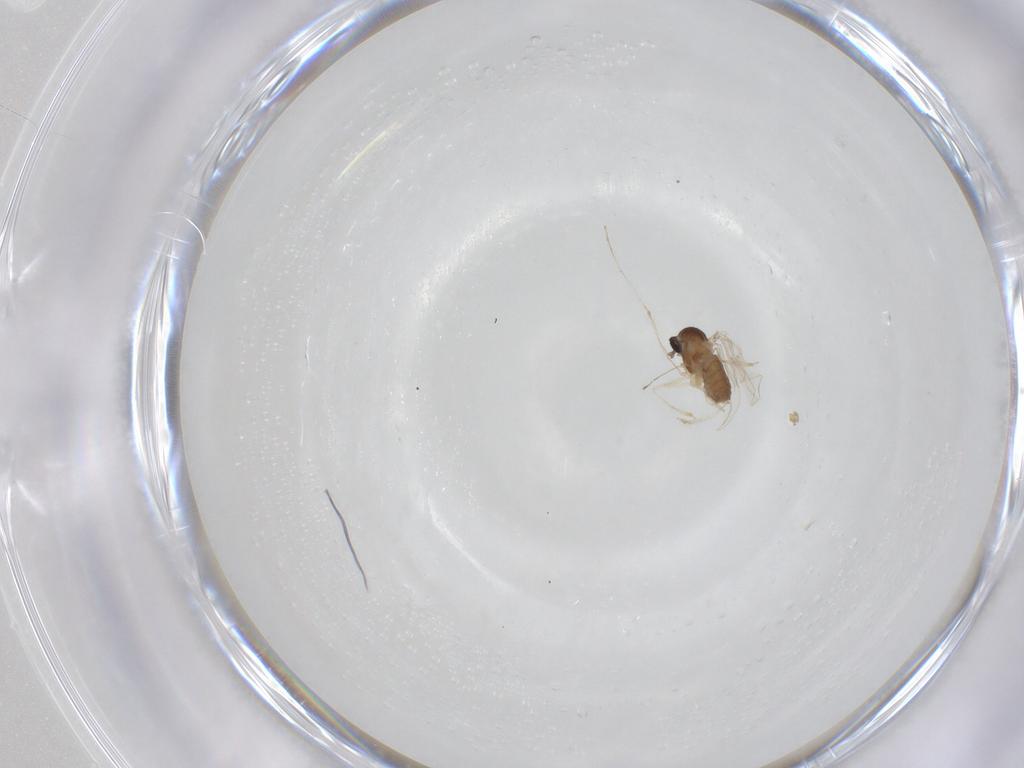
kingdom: Animalia
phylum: Arthropoda
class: Insecta
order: Diptera
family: Cecidomyiidae
